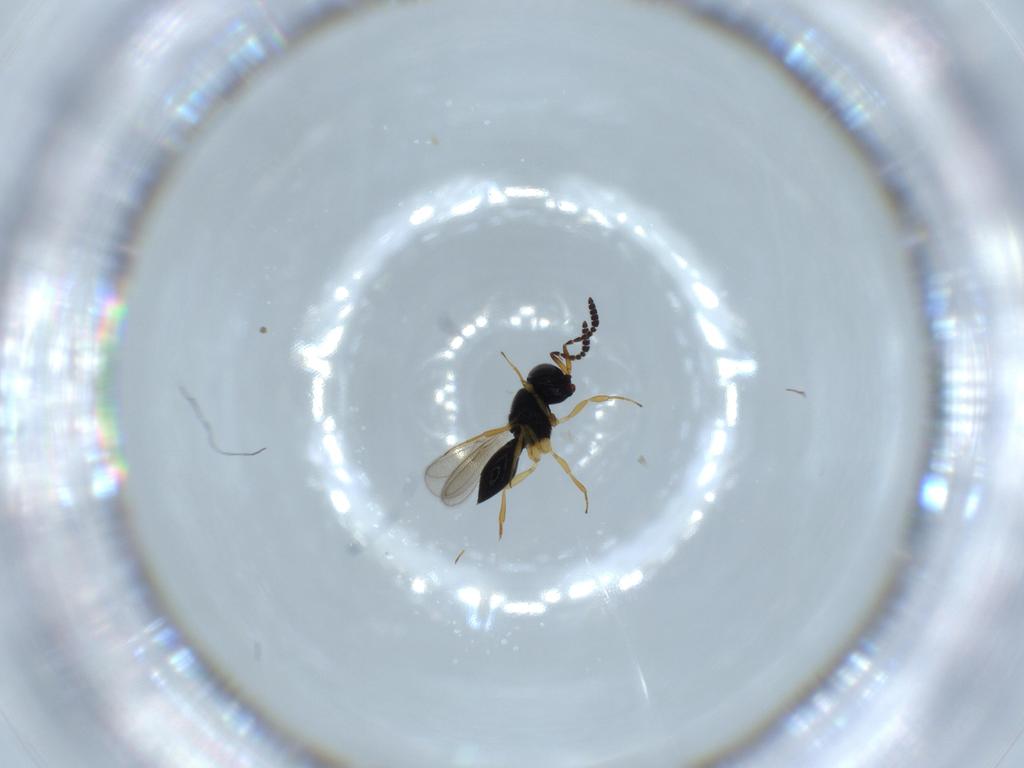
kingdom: Animalia
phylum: Arthropoda
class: Insecta
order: Hymenoptera
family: Scelionidae
